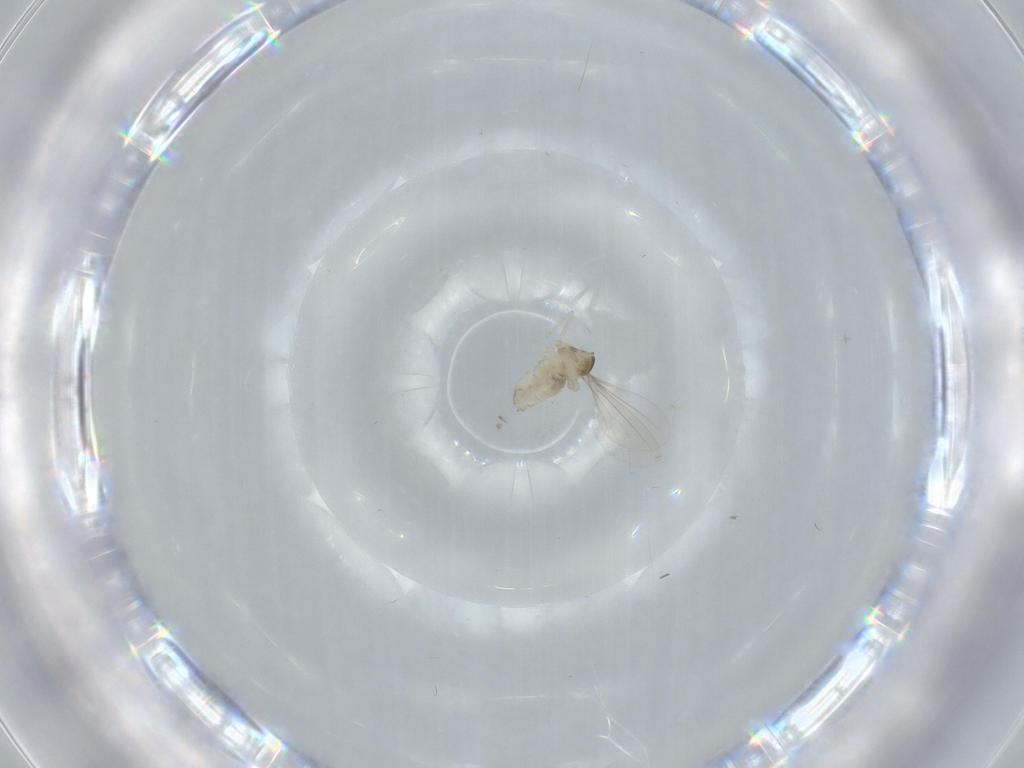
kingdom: Animalia
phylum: Arthropoda
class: Insecta
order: Diptera
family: Cecidomyiidae
